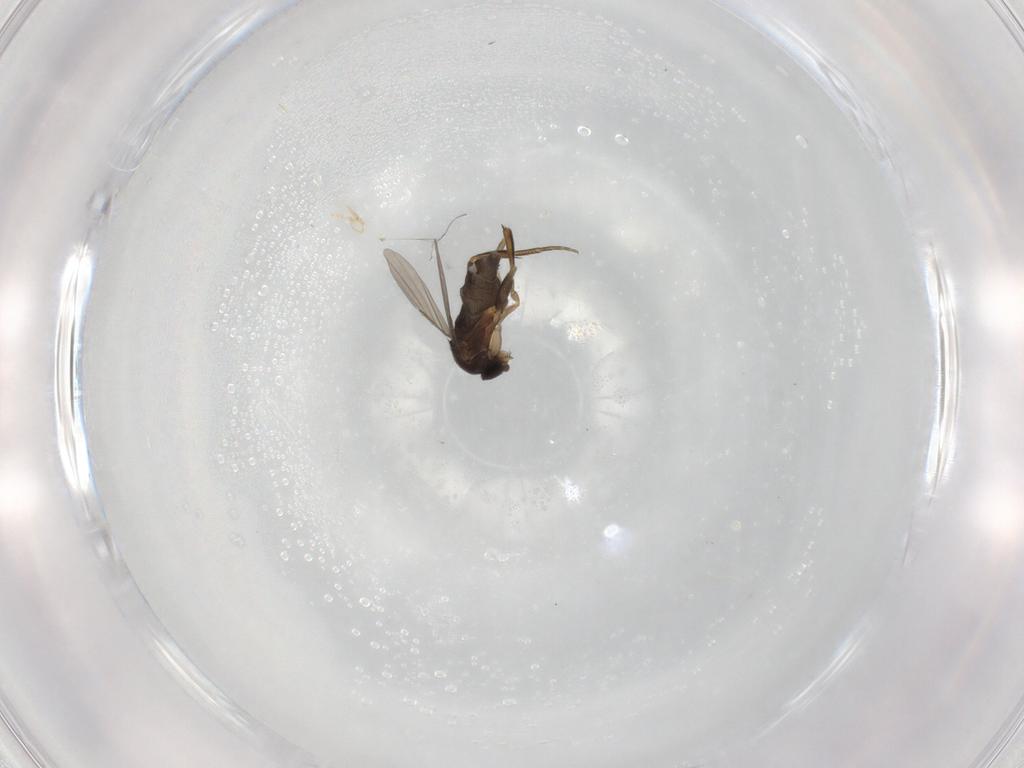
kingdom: Animalia
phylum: Arthropoda
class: Insecta
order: Diptera
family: Phoridae
